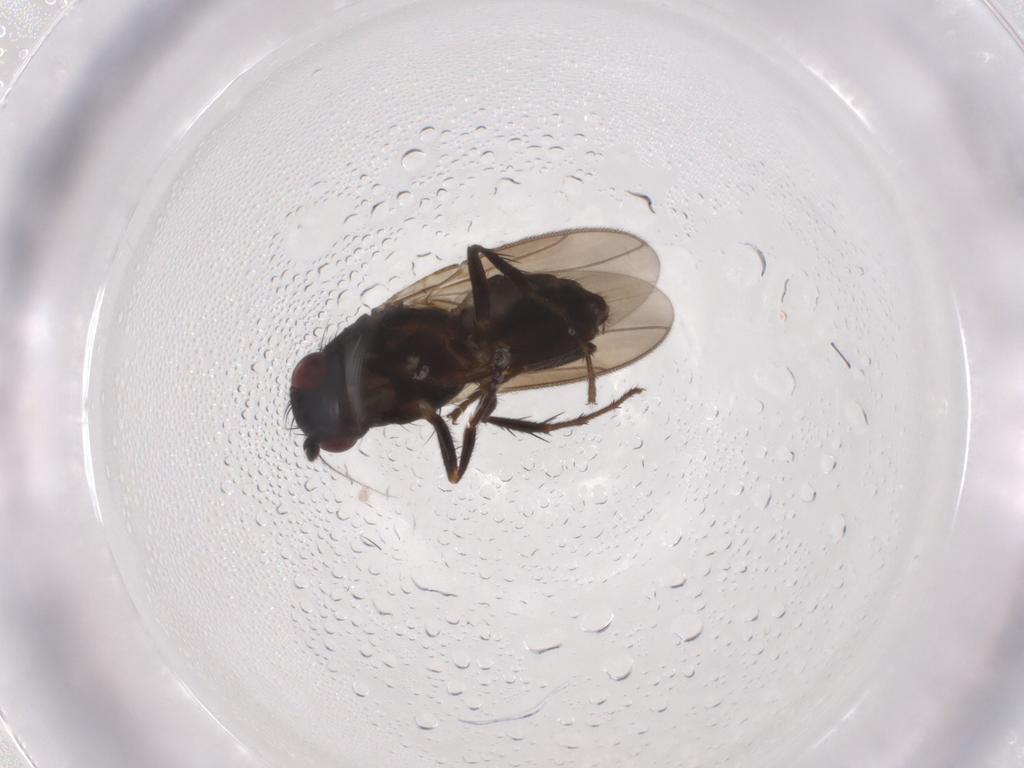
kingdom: Animalia
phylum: Arthropoda
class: Insecta
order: Diptera
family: Sphaeroceridae
